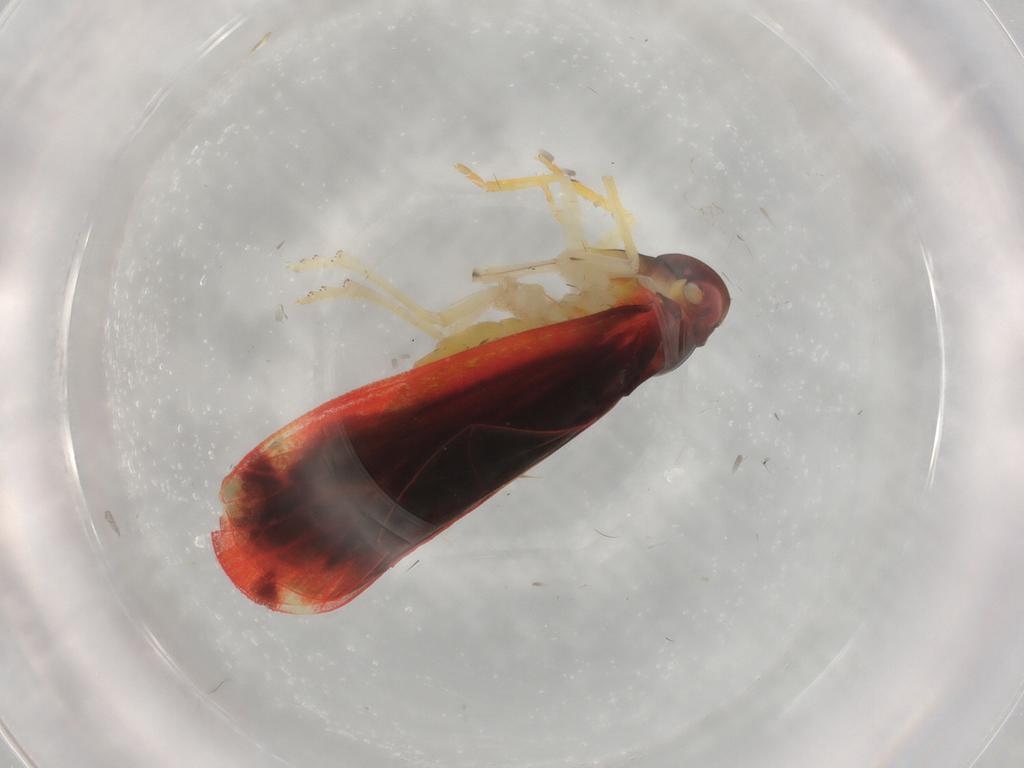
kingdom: Animalia
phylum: Arthropoda
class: Insecta
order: Hemiptera
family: Derbidae
